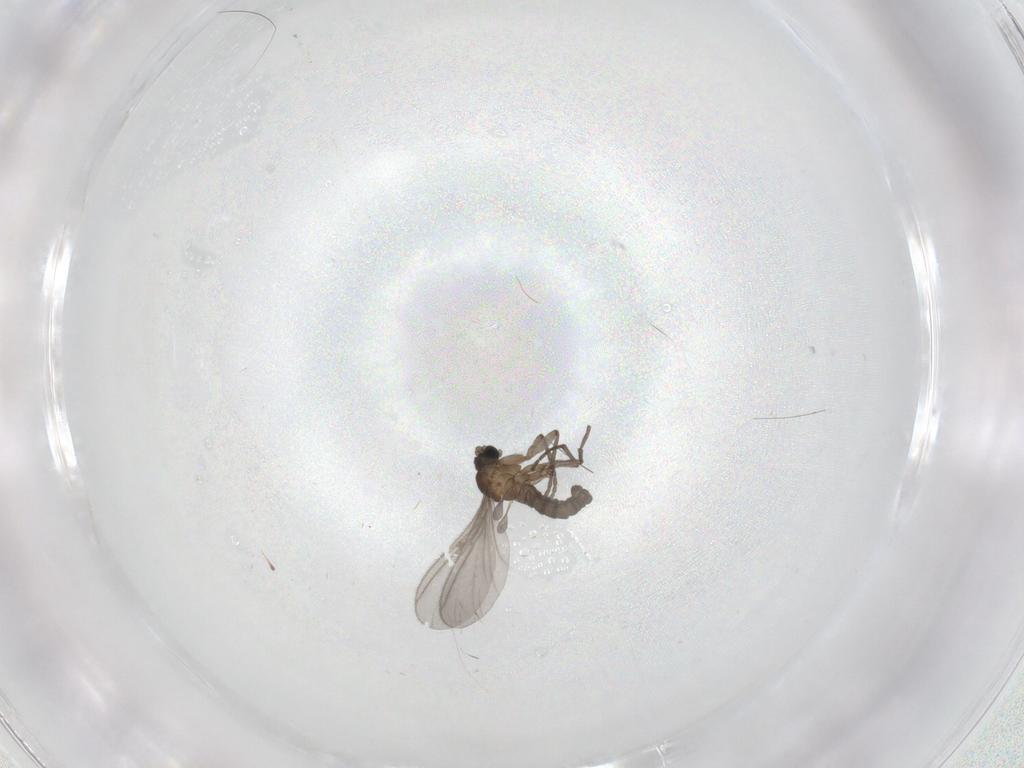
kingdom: Animalia
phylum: Arthropoda
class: Insecta
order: Diptera
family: Sciaridae
